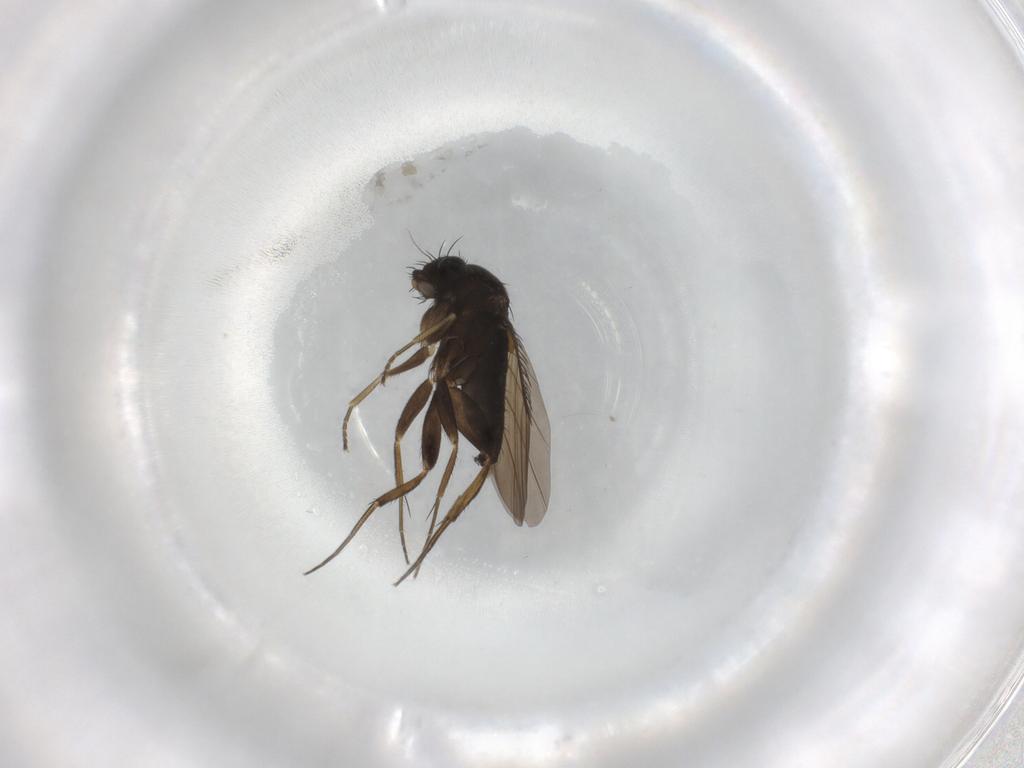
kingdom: Animalia
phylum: Arthropoda
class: Insecta
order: Diptera
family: Phoridae
